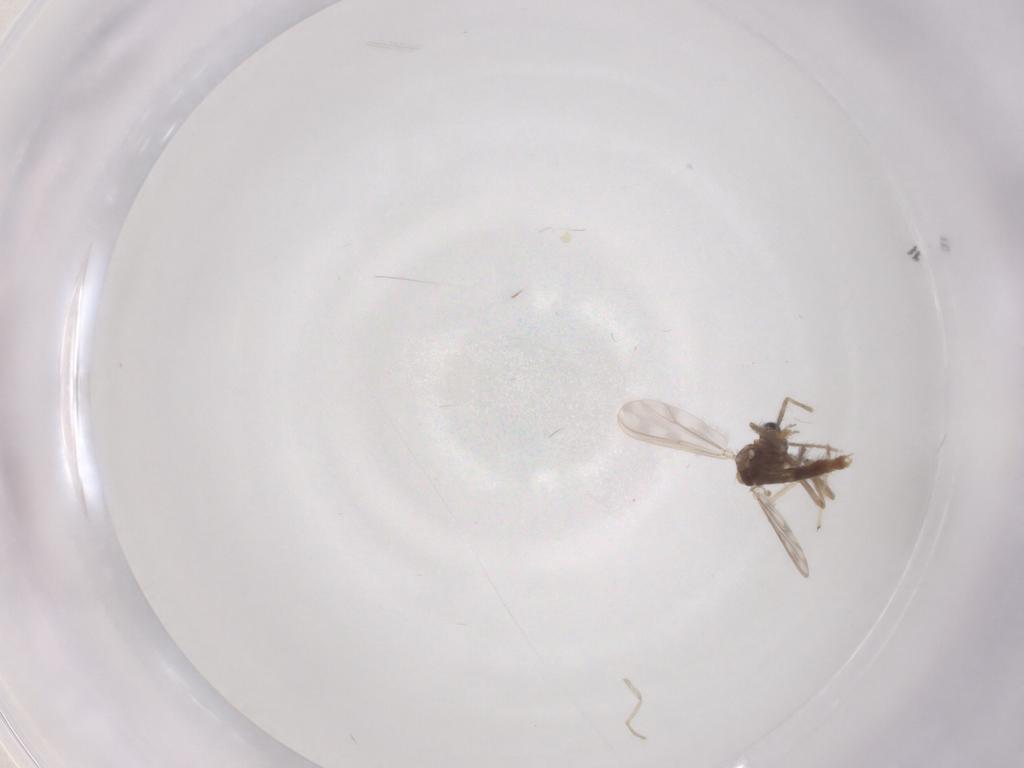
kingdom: Animalia
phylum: Arthropoda
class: Insecta
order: Diptera
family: Chironomidae
